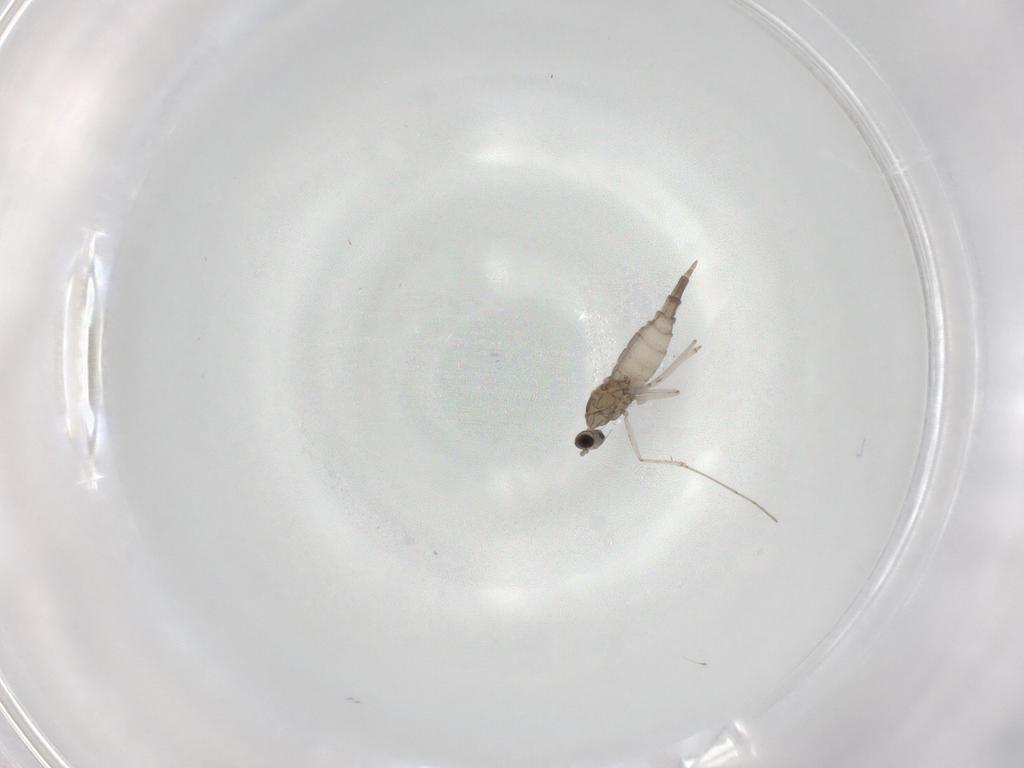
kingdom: Animalia
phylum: Arthropoda
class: Insecta
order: Diptera
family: Cecidomyiidae
